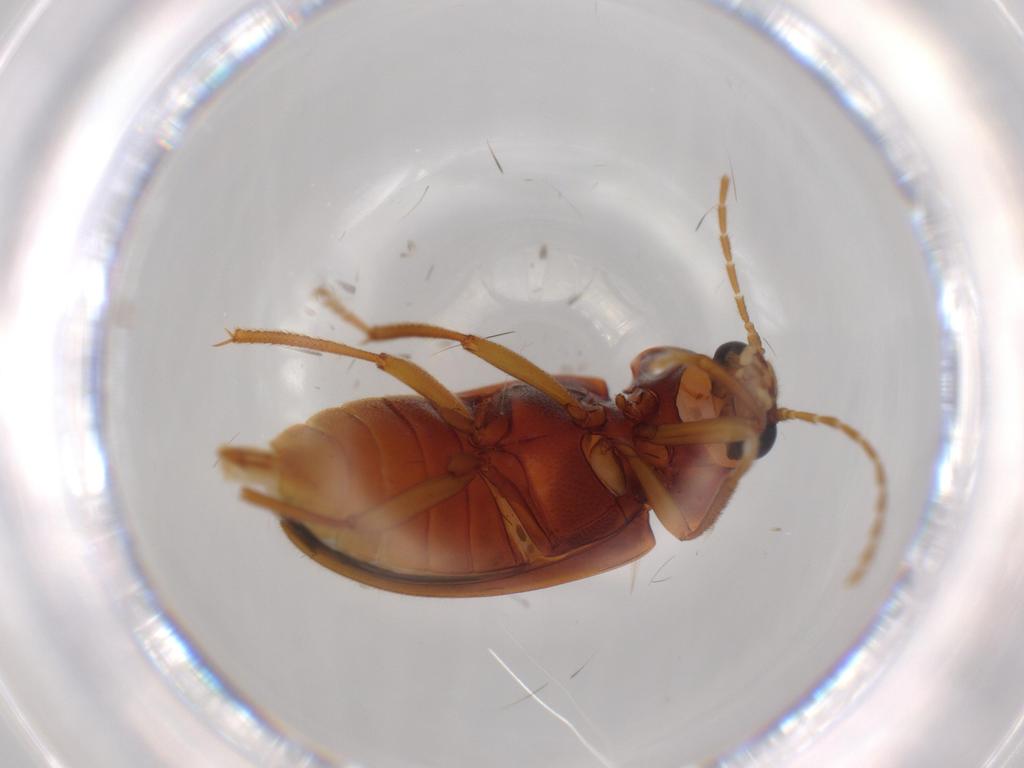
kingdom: Animalia
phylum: Arthropoda
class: Insecta
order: Coleoptera
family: Ptilodactylidae
